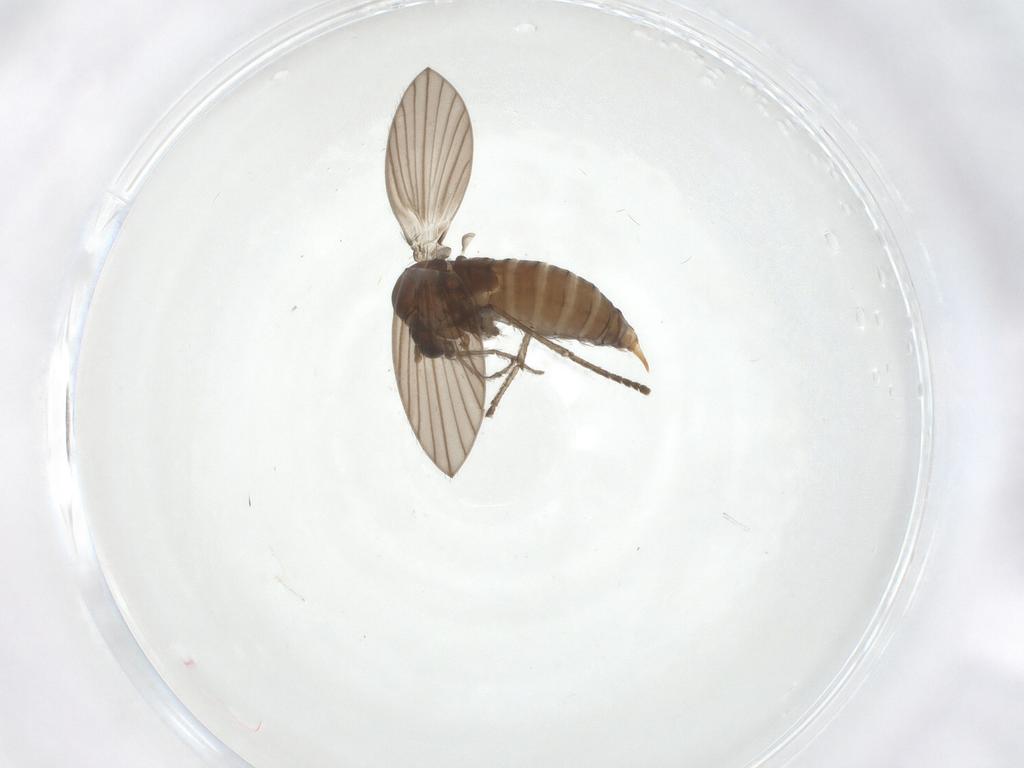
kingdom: Animalia
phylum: Arthropoda
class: Insecta
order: Diptera
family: Psychodidae
